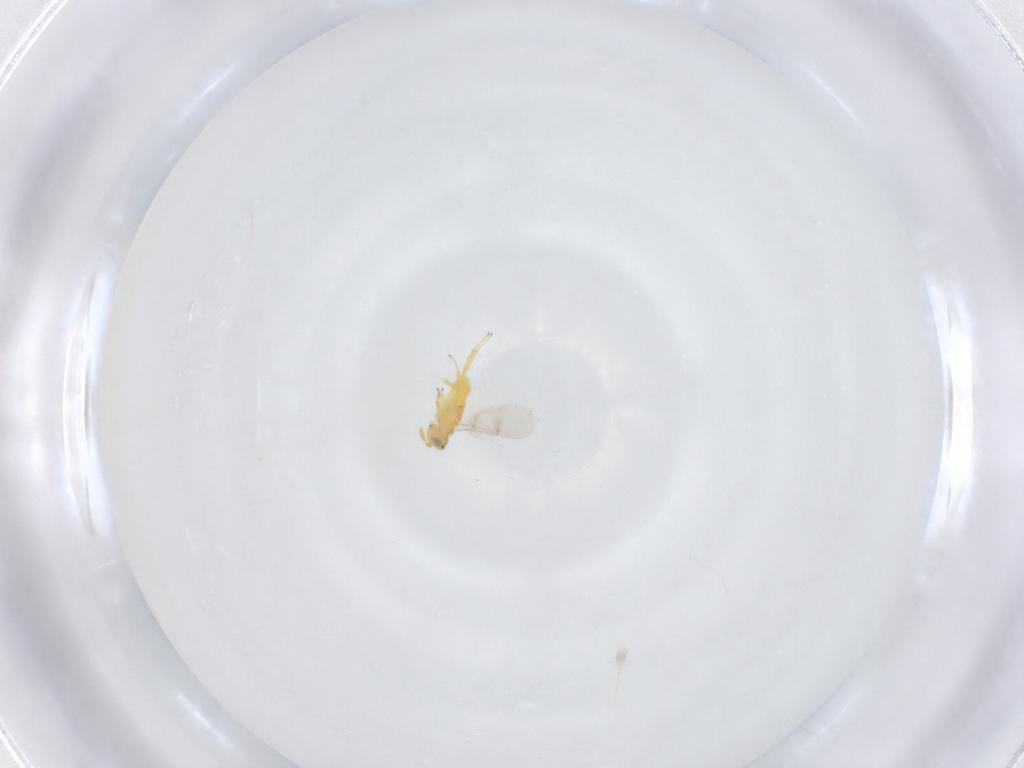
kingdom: Animalia
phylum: Arthropoda
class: Insecta
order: Hymenoptera
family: Aphelinidae
